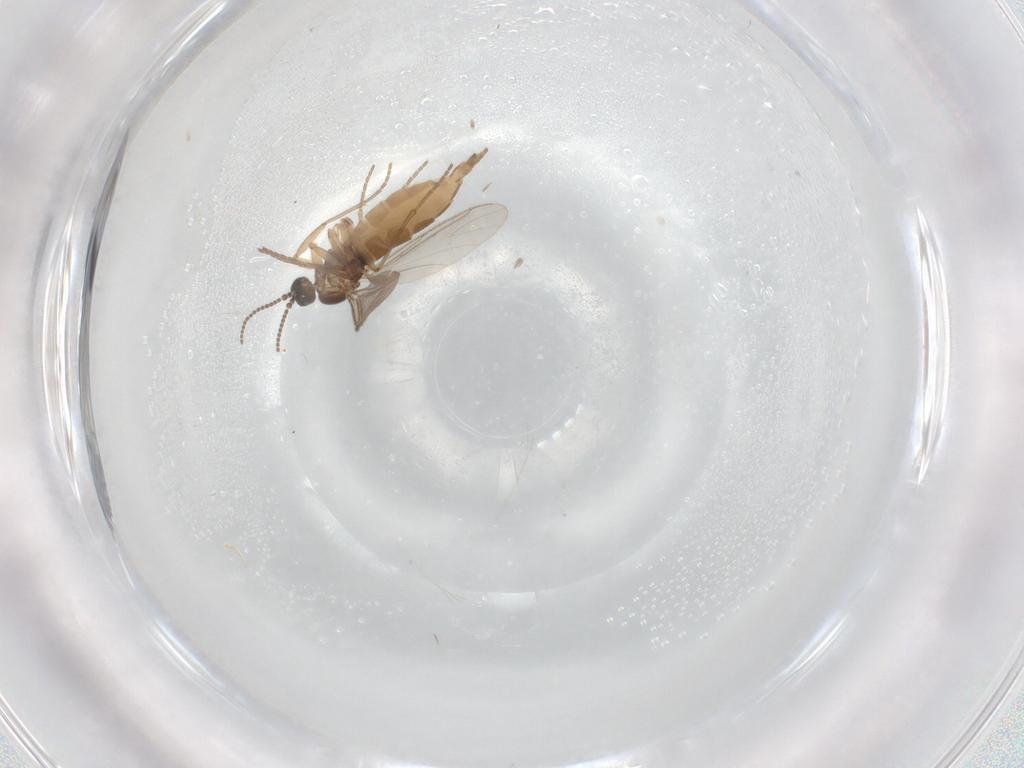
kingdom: Animalia
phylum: Arthropoda
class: Insecta
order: Diptera
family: Sciaridae
